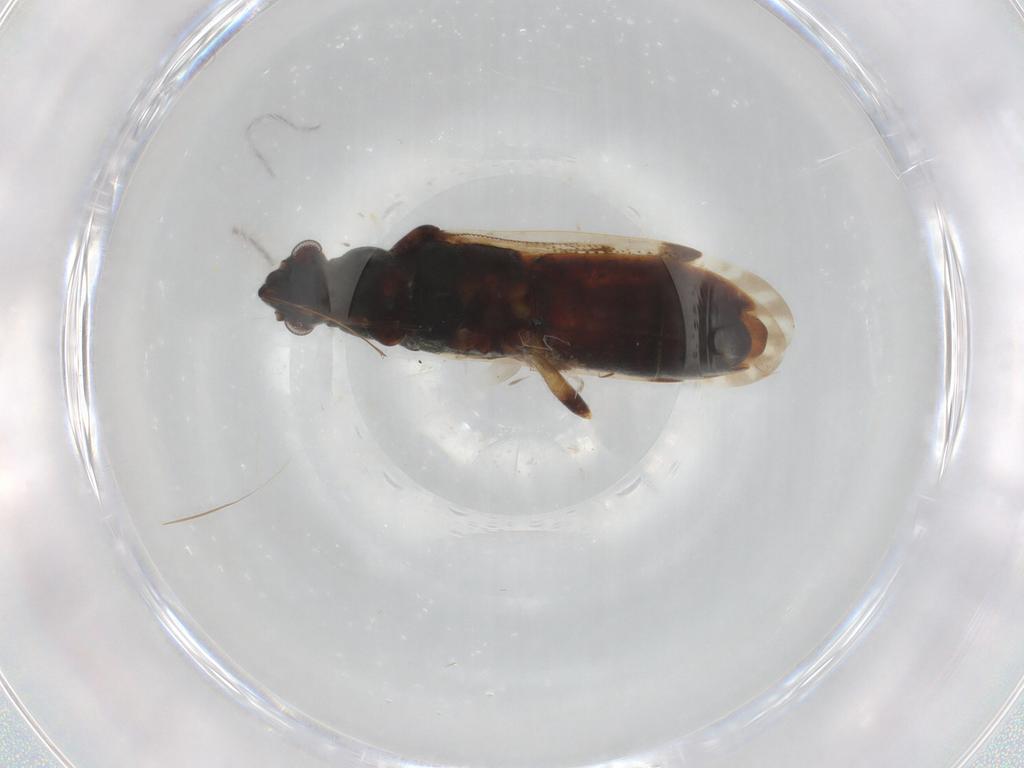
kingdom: Animalia
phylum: Arthropoda
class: Insecta
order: Hemiptera
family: Rhyparochromidae
